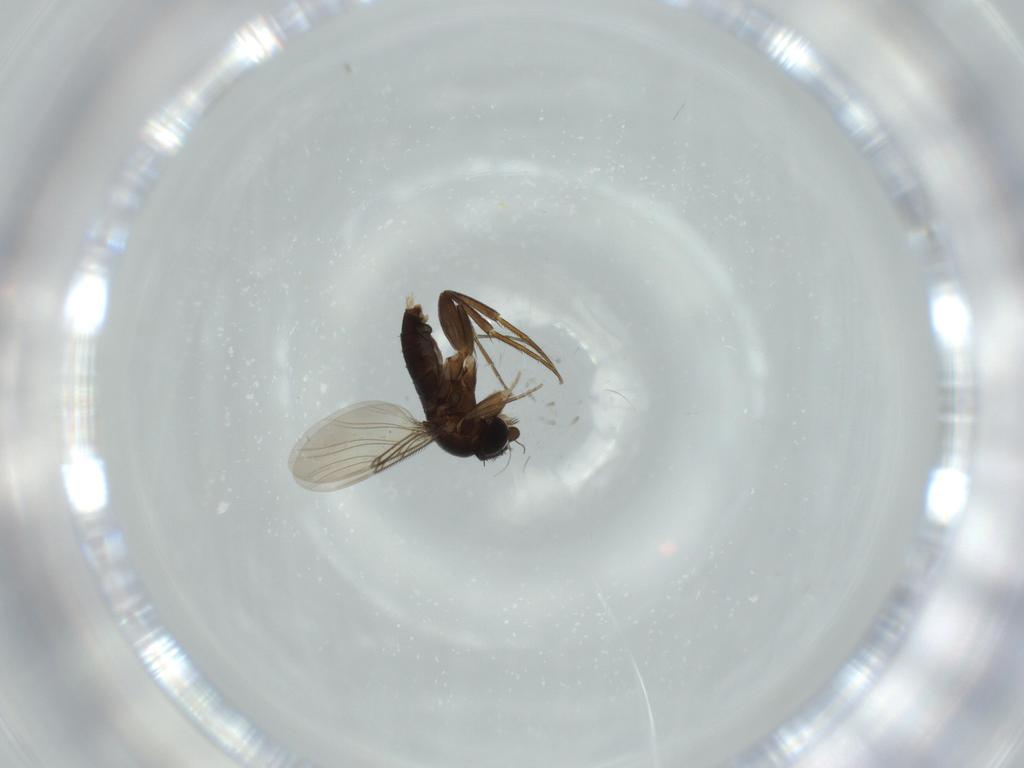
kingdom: Animalia
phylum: Arthropoda
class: Insecta
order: Diptera
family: Phoridae
